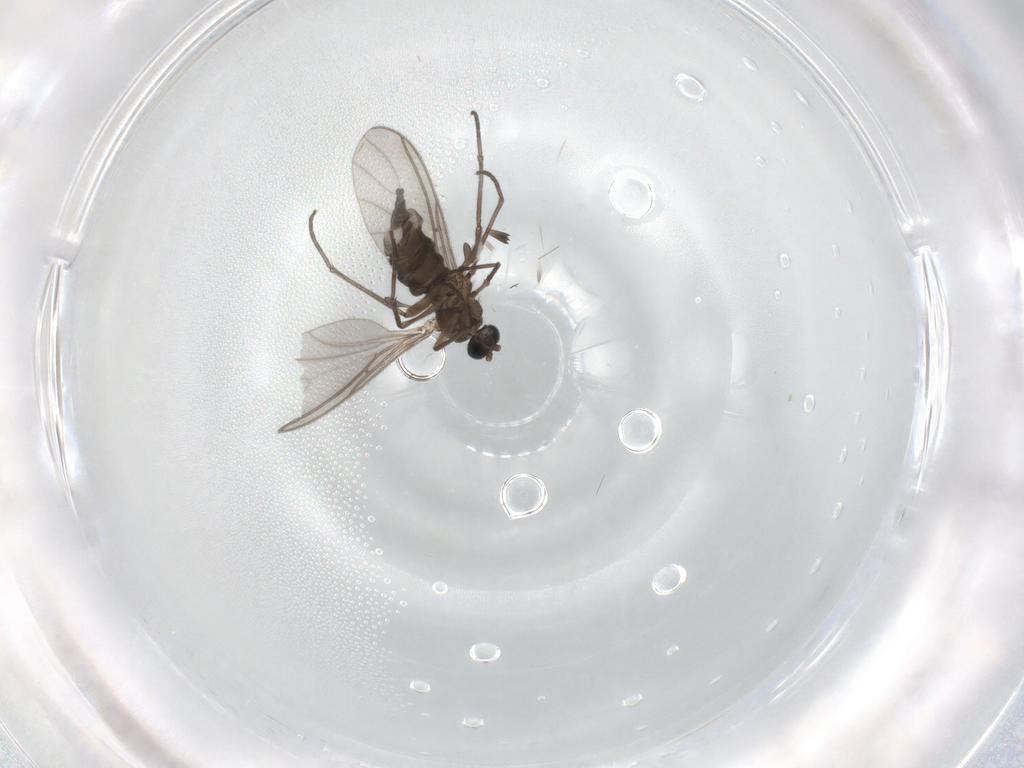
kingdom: Animalia
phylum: Arthropoda
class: Insecta
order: Diptera
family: Sciaridae
